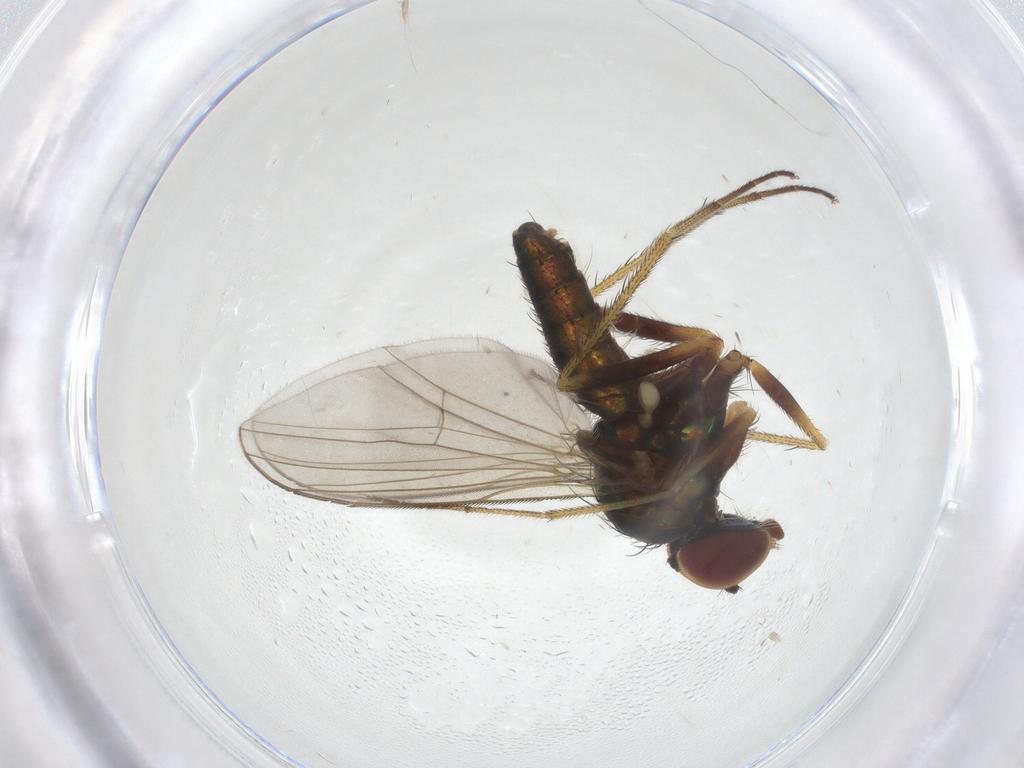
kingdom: Animalia
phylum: Arthropoda
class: Insecta
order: Diptera
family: Dolichopodidae
